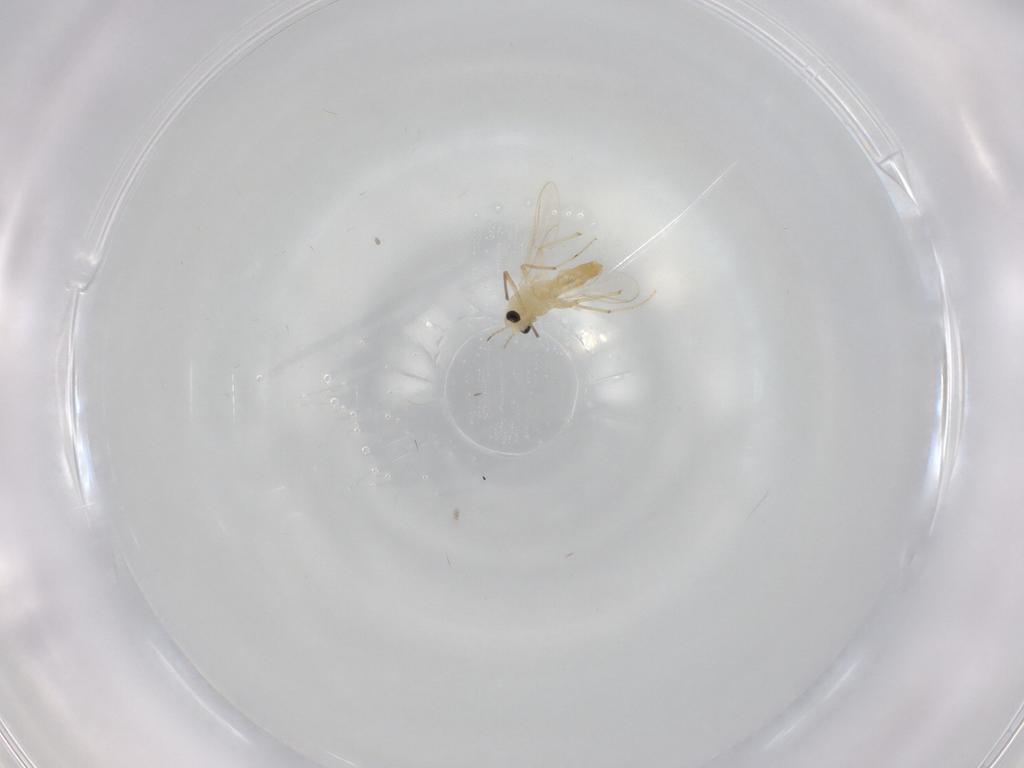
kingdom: Animalia
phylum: Arthropoda
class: Insecta
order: Diptera
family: Chironomidae
